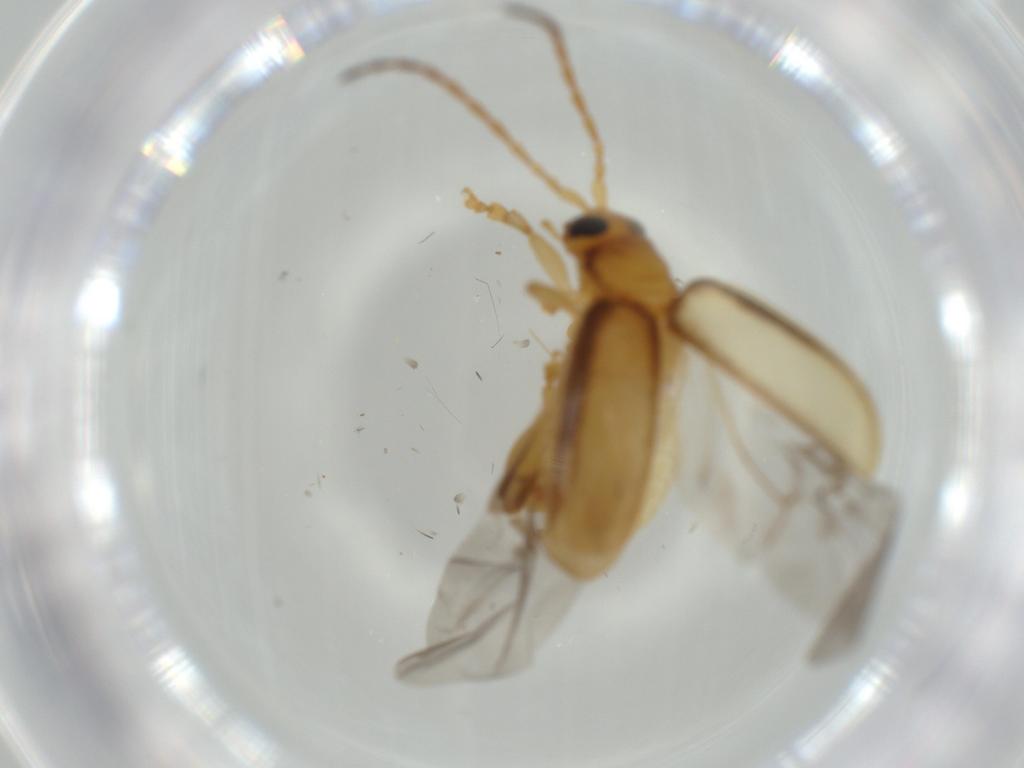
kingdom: Animalia
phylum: Arthropoda
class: Insecta
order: Coleoptera
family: Chrysomelidae
